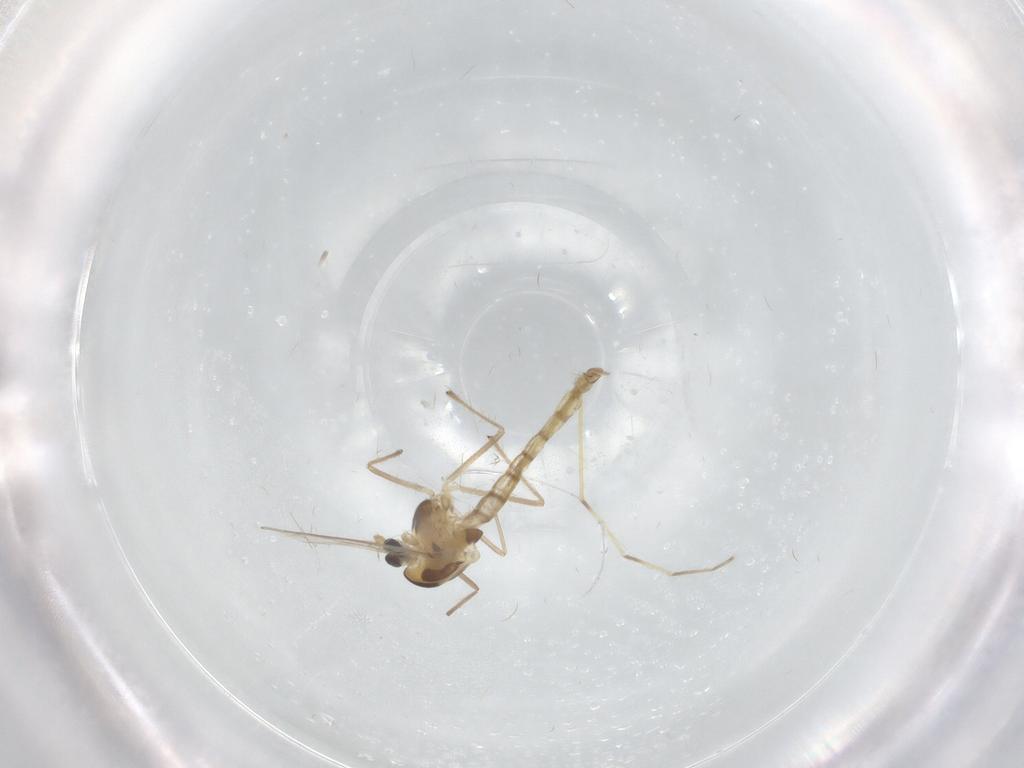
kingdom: Animalia
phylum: Arthropoda
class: Insecta
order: Diptera
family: Chironomidae
